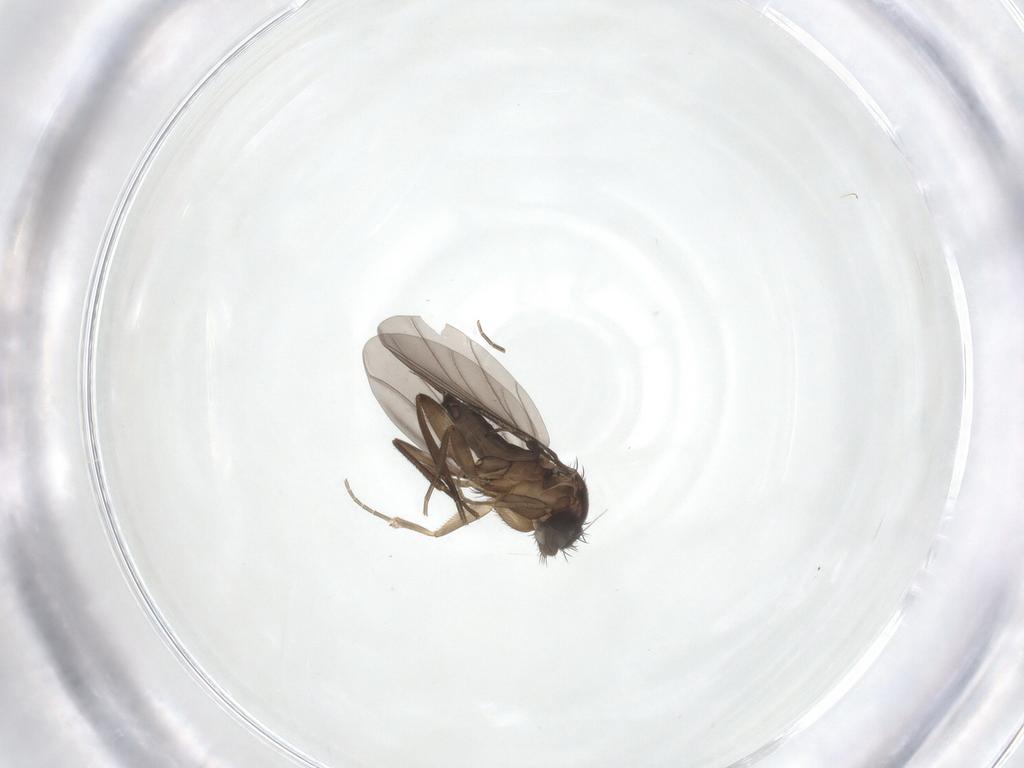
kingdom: Animalia
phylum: Arthropoda
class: Insecta
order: Diptera
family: Phoridae
